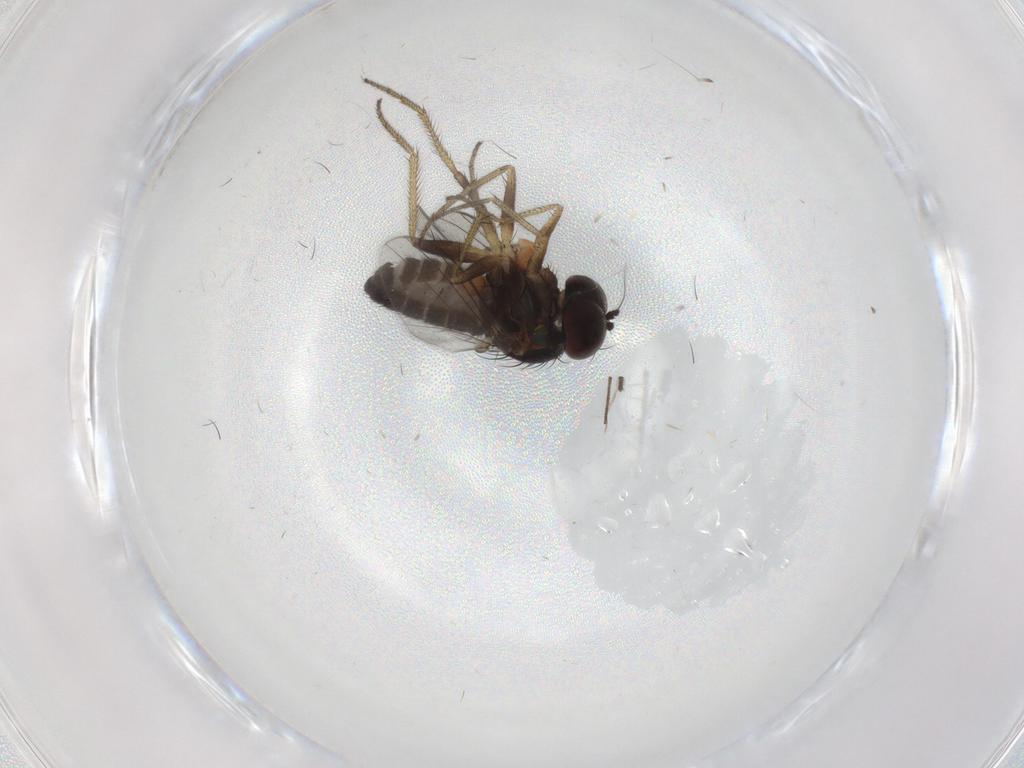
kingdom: Animalia
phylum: Arthropoda
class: Insecta
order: Diptera
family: Dolichopodidae
